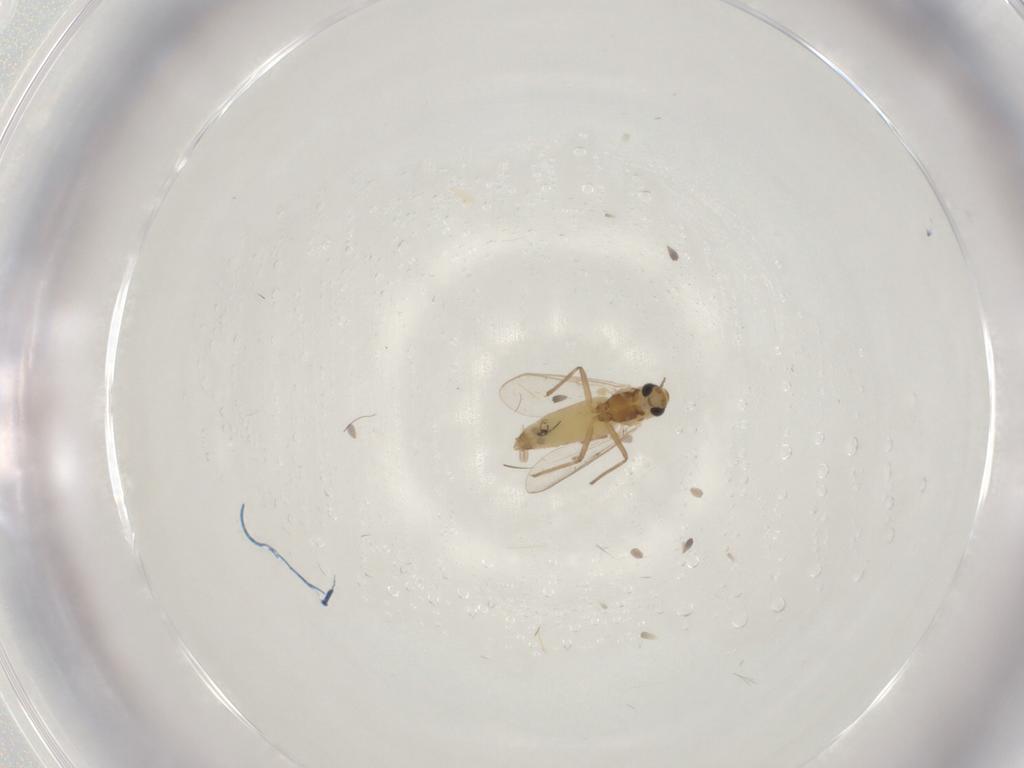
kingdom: Animalia
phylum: Arthropoda
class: Insecta
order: Diptera
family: Chironomidae
